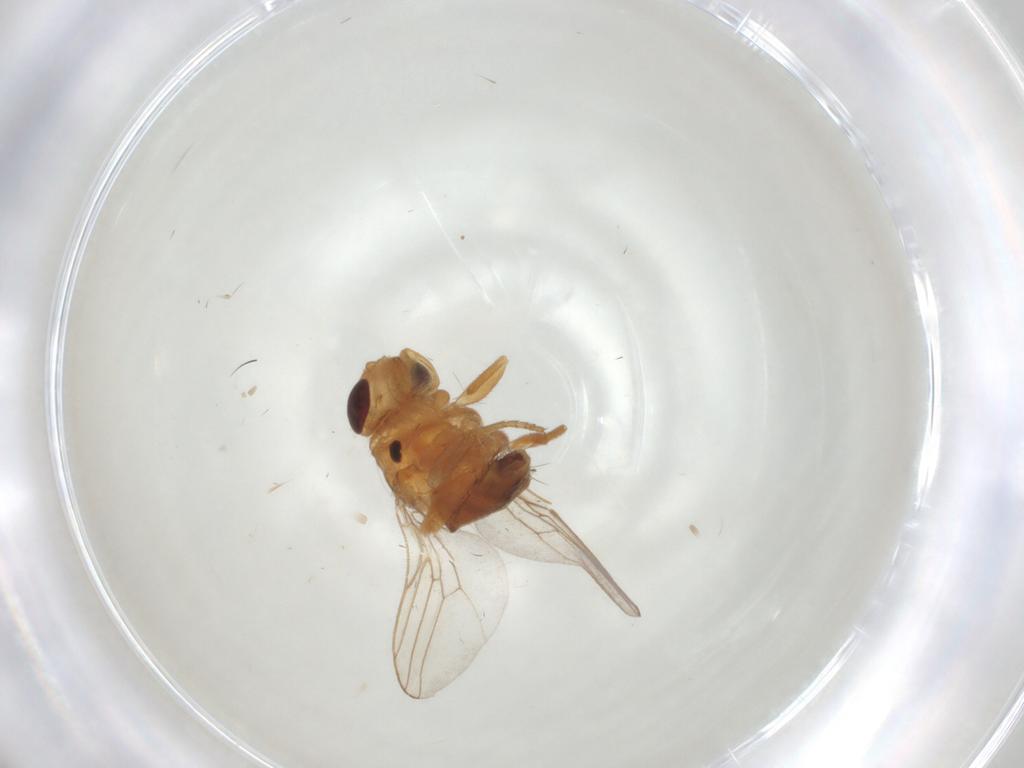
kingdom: Animalia
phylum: Arthropoda
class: Insecta
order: Diptera
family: Chloropidae
